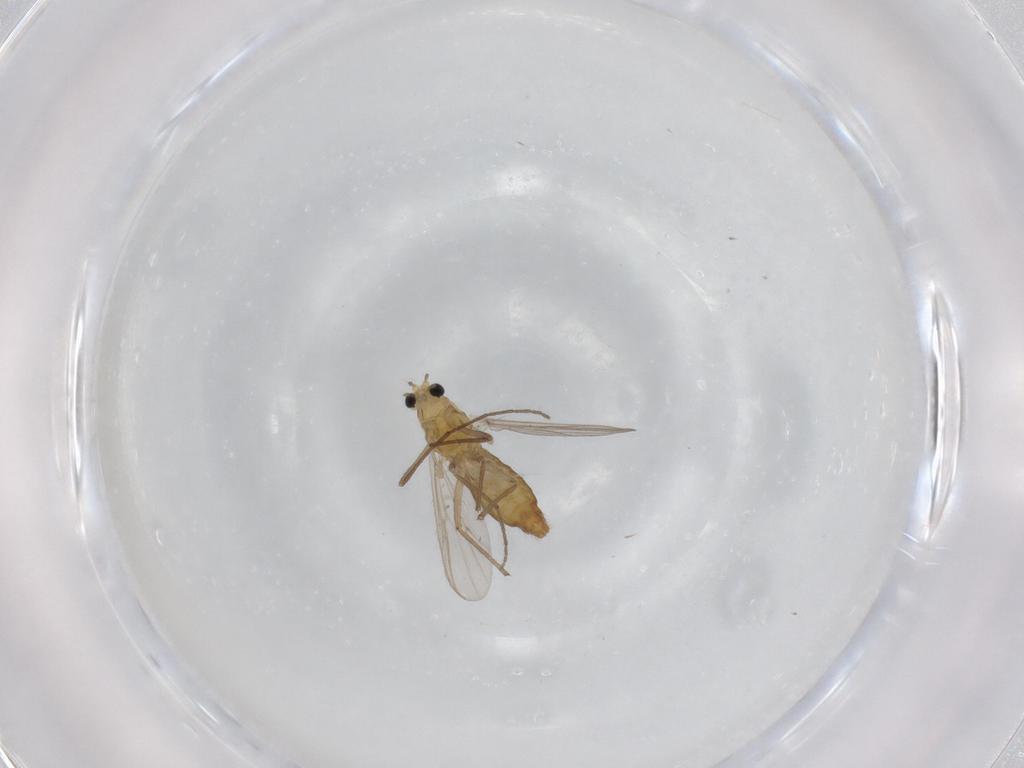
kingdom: Animalia
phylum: Arthropoda
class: Insecta
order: Diptera
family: Chironomidae
